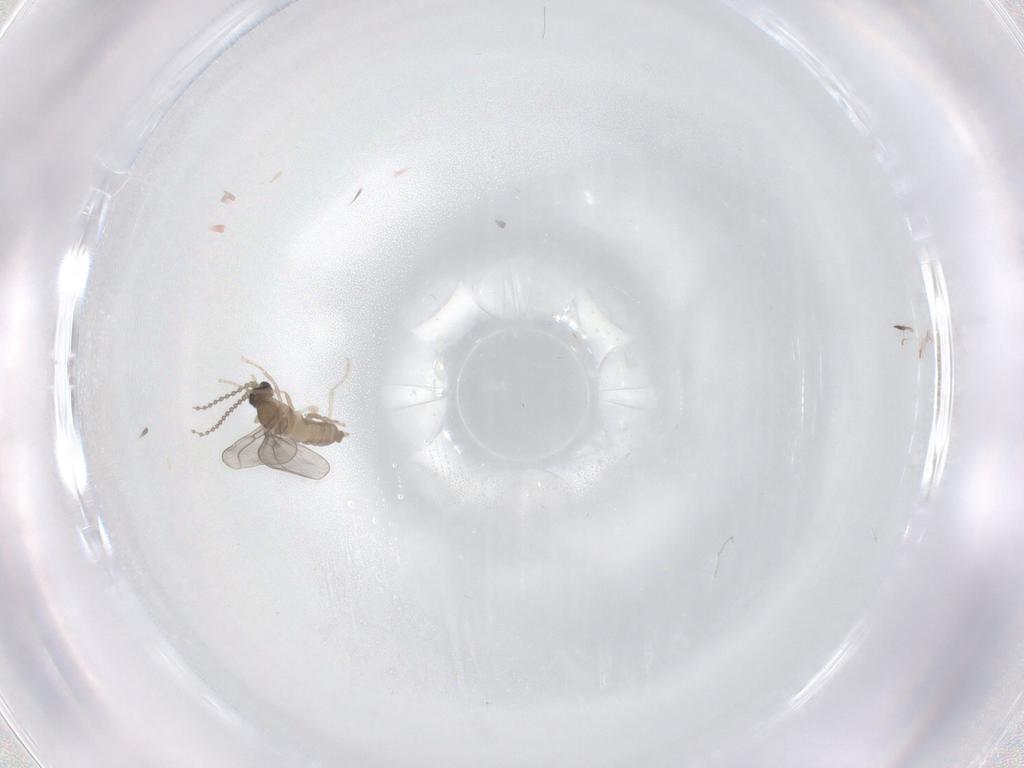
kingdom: Animalia
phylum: Arthropoda
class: Insecta
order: Diptera
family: Cecidomyiidae
